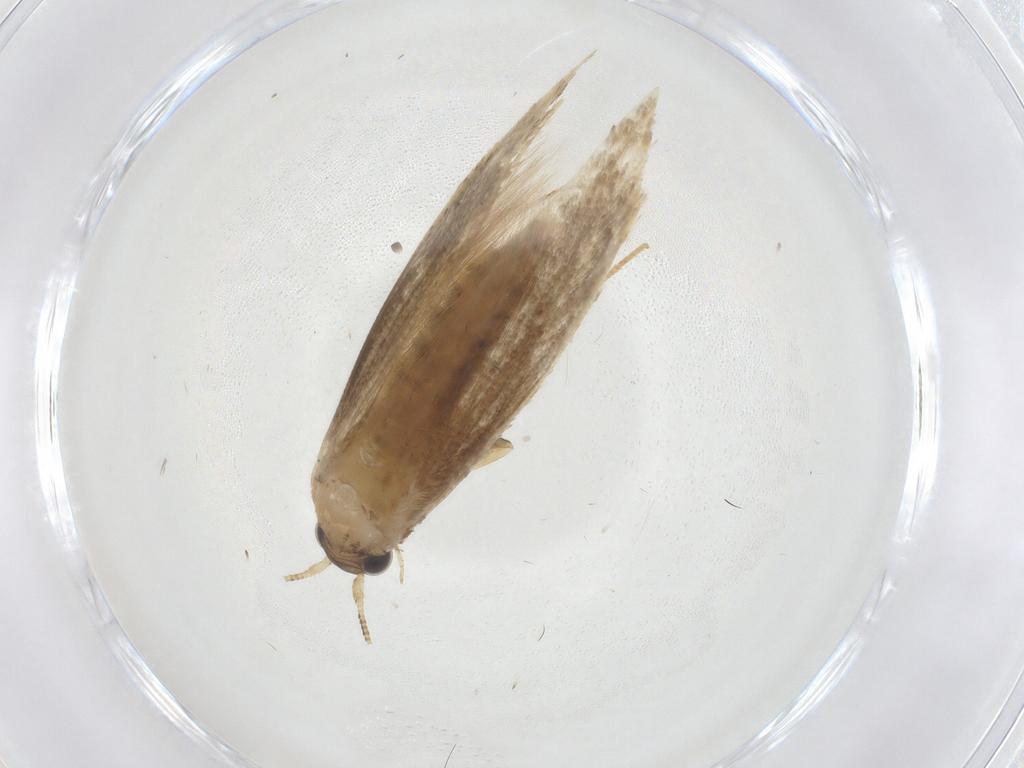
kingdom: Animalia
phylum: Arthropoda
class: Insecta
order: Lepidoptera
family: Tineidae
